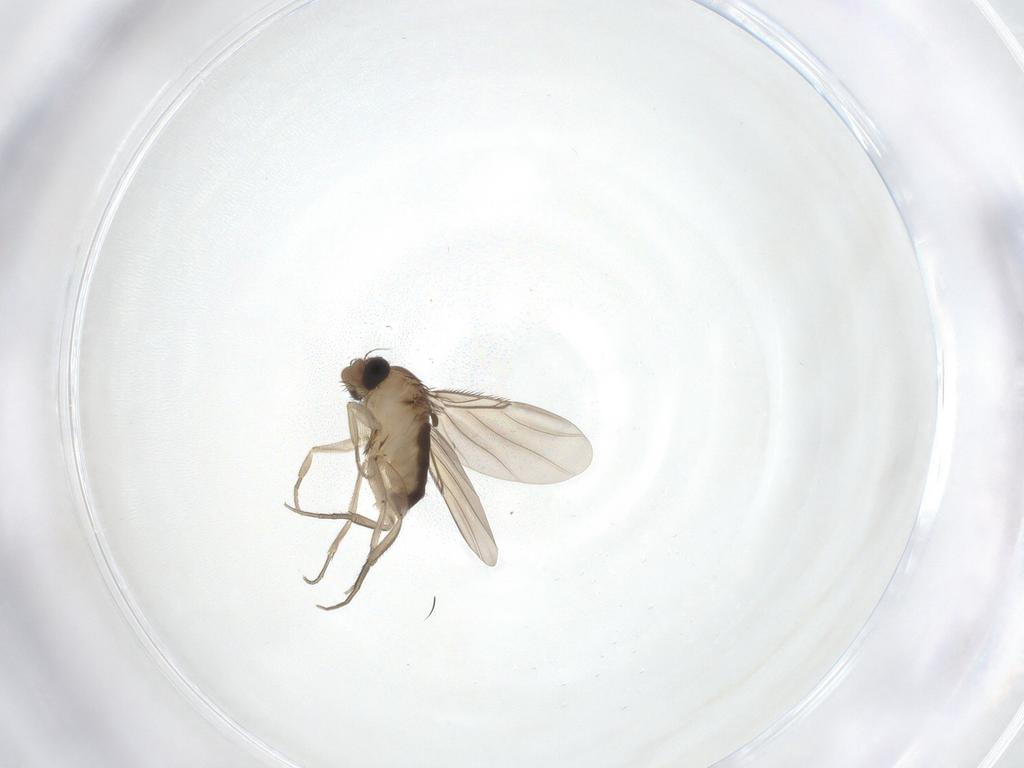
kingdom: Animalia
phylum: Arthropoda
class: Insecta
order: Diptera
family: Phoridae
